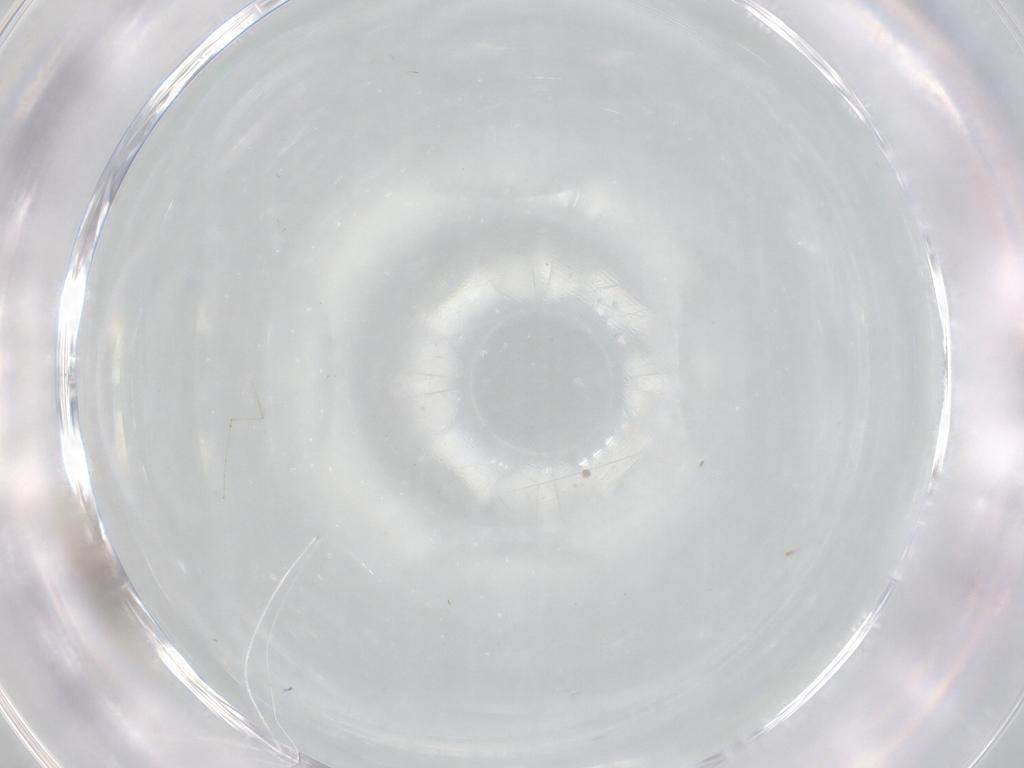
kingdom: Animalia
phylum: Arthropoda
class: Insecta
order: Diptera
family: Cecidomyiidae
